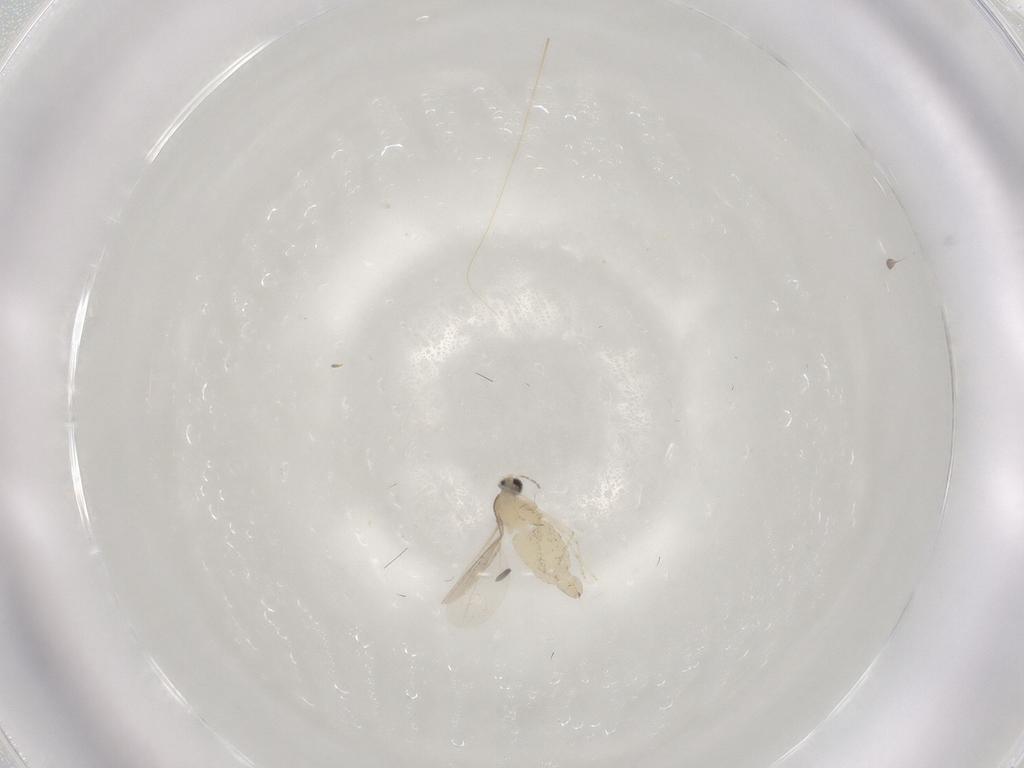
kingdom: Animalia
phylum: Arthropoda
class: Insecta
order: Diptera
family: Cecidomyiidae
